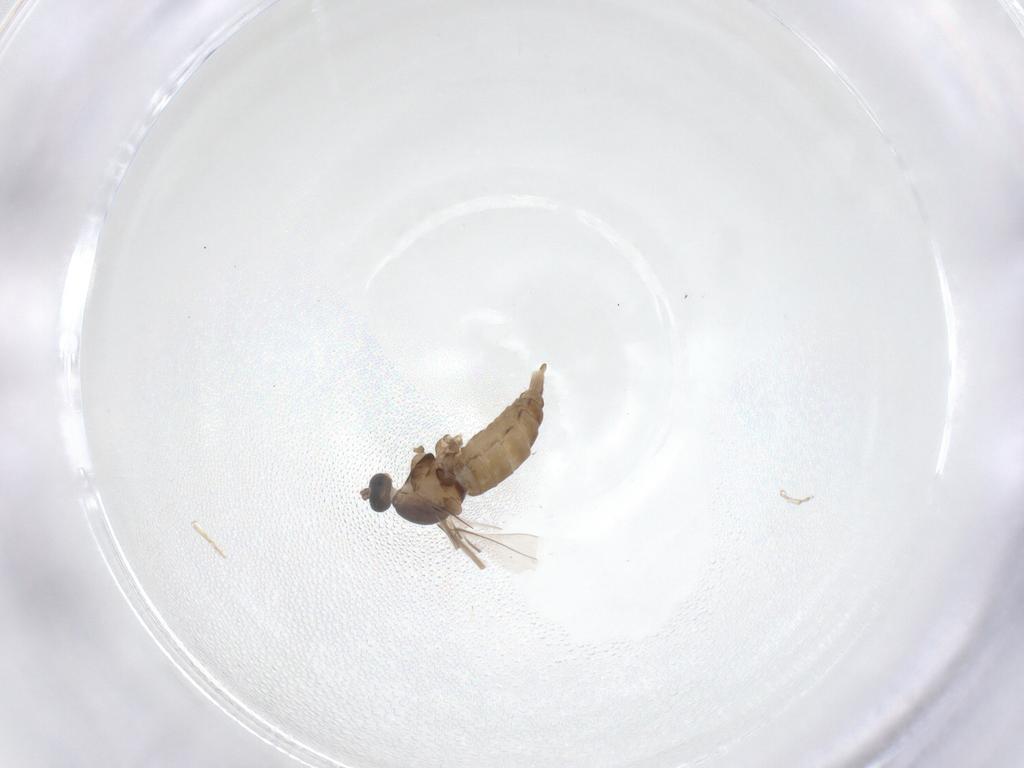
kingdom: Animalia
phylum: Arthropoda
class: Insecta
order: Diptera
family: Cecidomyiidae
